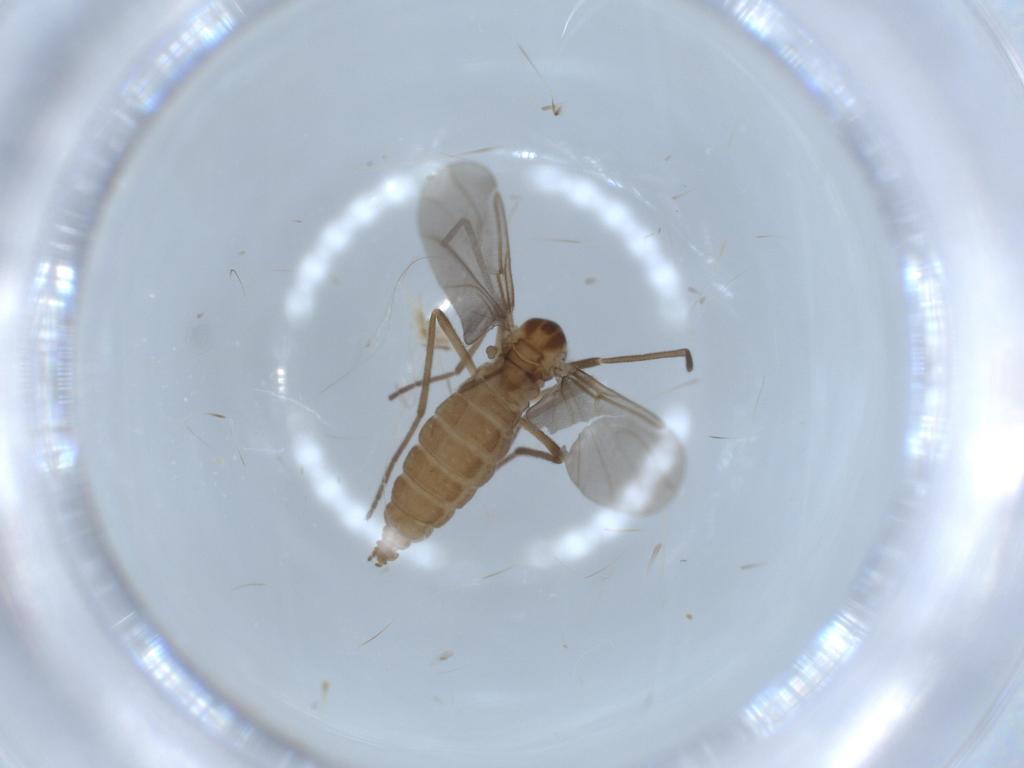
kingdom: Animalia
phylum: Arthropoda
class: Insecta
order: Diptera
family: Cecidomyiidae
